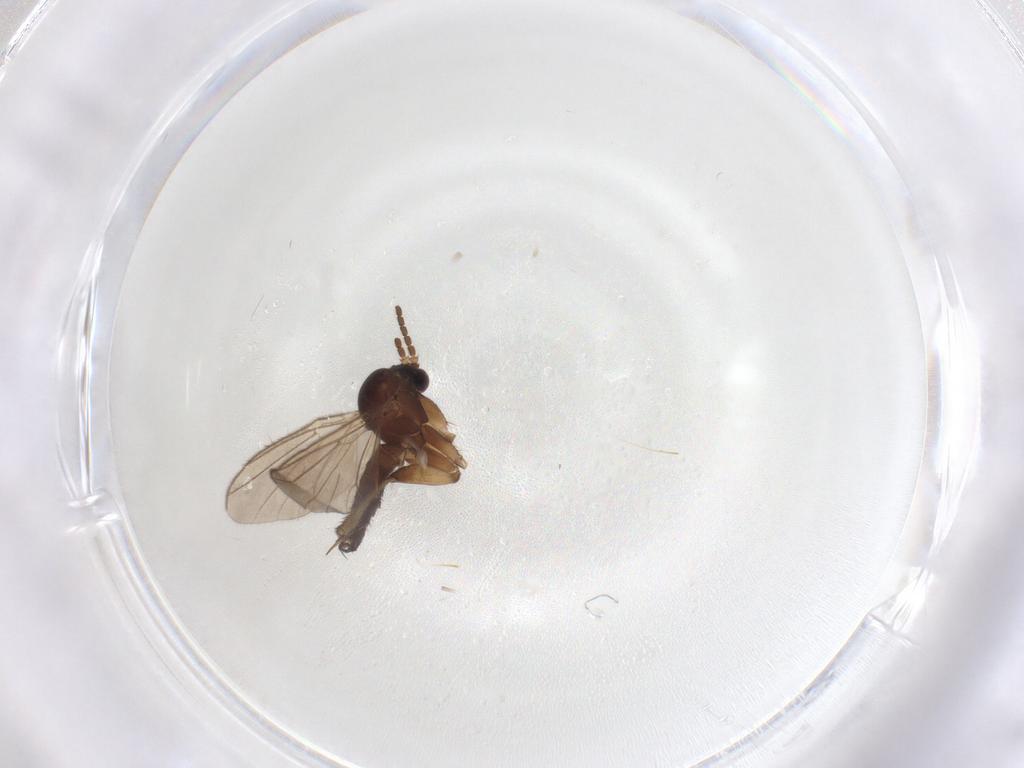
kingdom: Animalia
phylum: Arthropoda
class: Insecta
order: Diptera
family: Mycetophilidae
